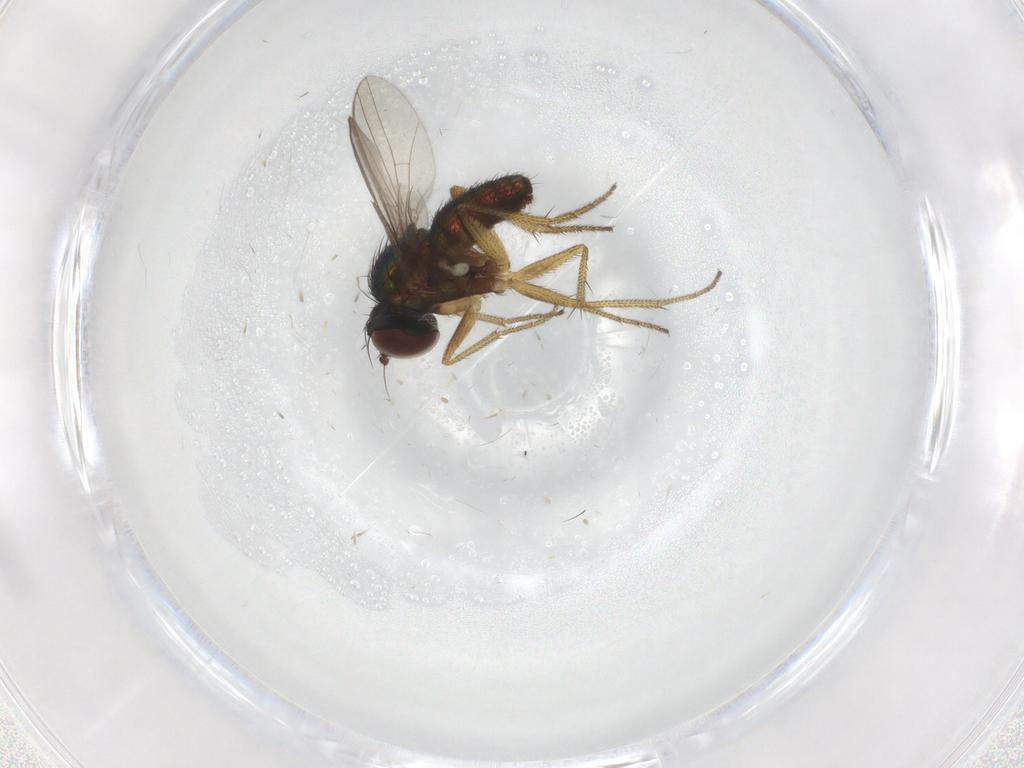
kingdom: Animalia
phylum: Arthropoda
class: Insecta
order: Diptera
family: Dolichopodidae
